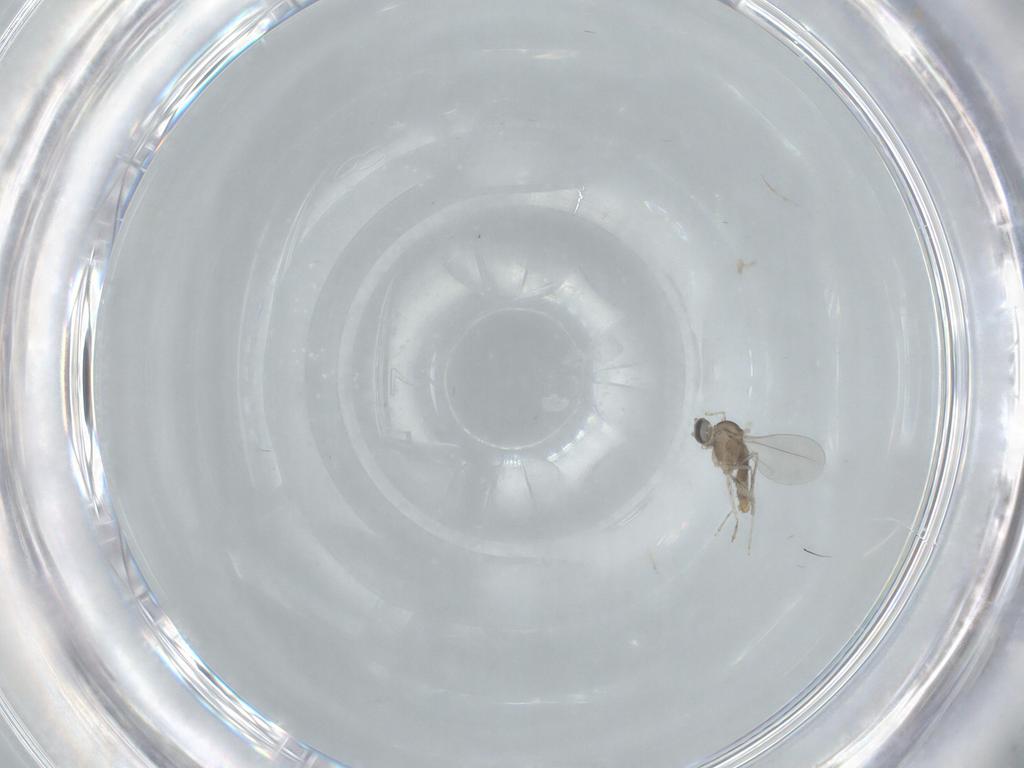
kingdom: Animalia
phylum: Arthropoda
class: Insecta
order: Diptera
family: Cecidomyiidae
